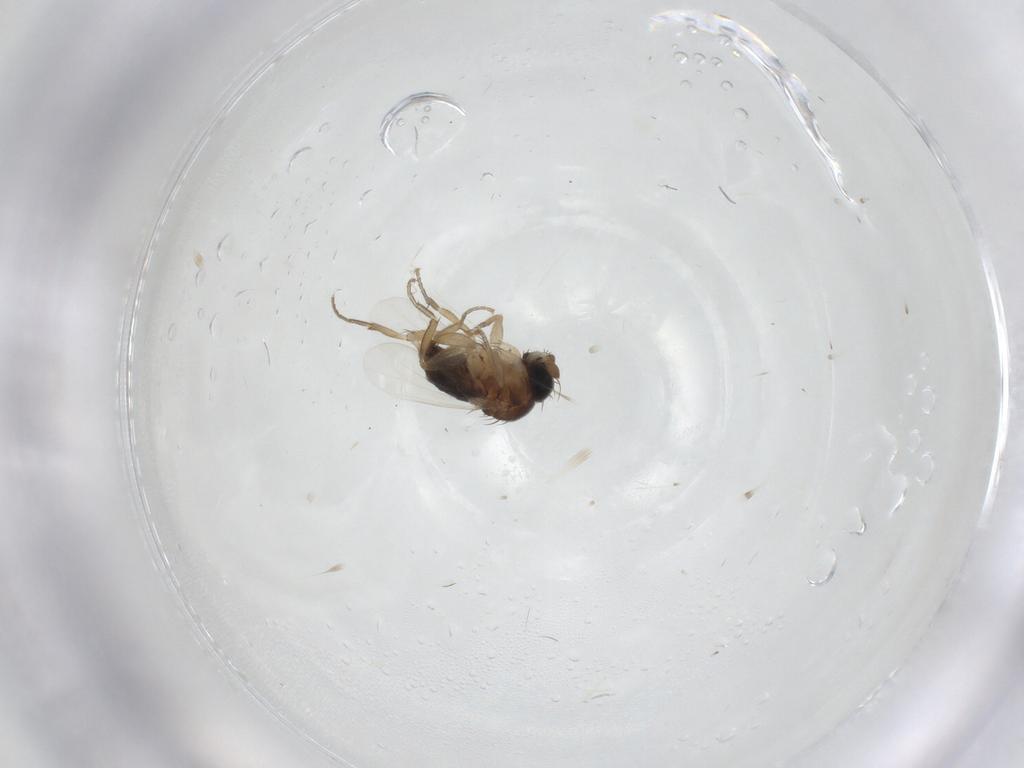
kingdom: Animalia
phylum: Arthropoda
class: Insecta
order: Diptera
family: Phoridae
